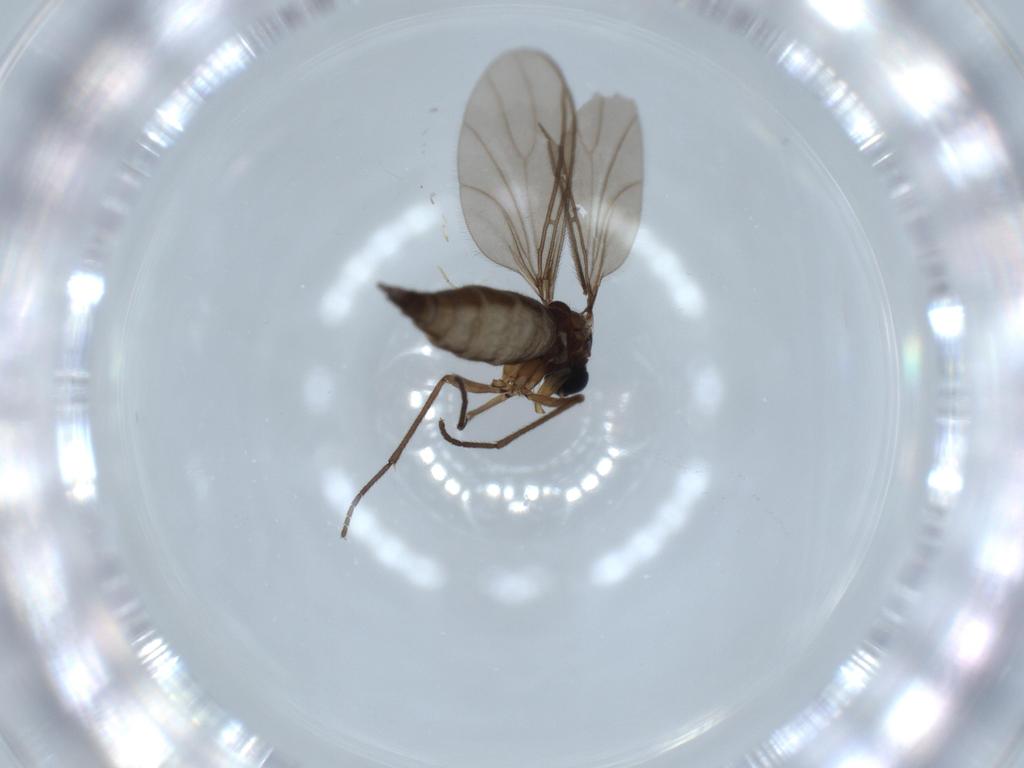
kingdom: Animalia
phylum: Arthropoda
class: Insecta
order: Diptera
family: Sciaridae
